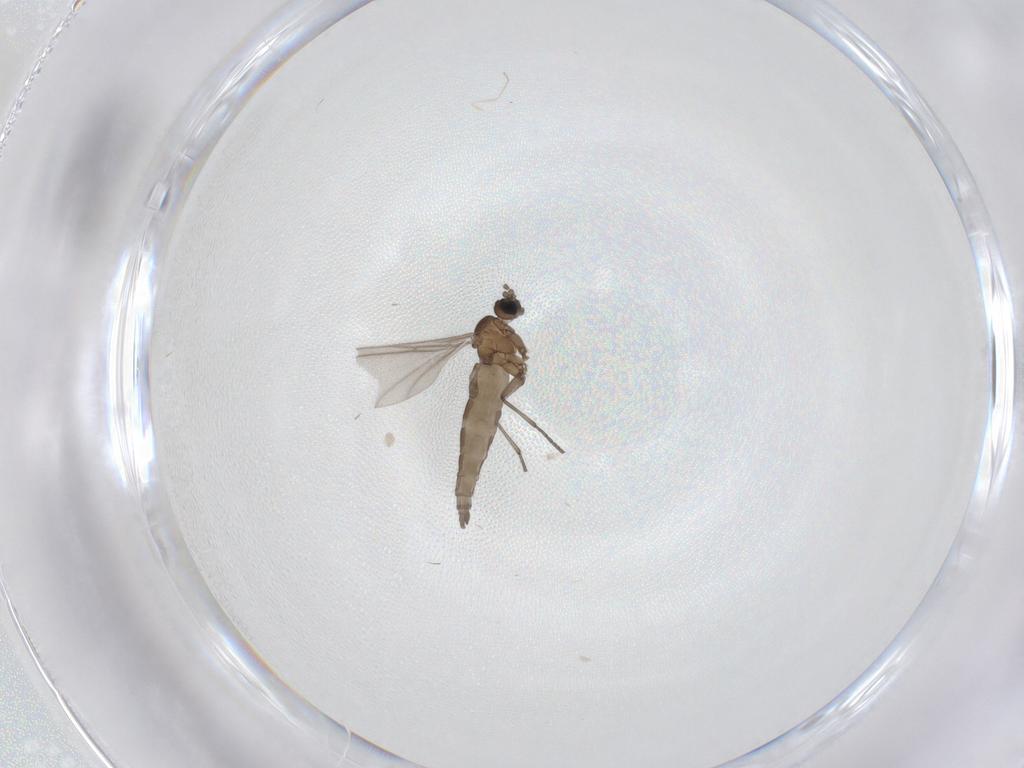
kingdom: Animalia
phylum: Arthropoda
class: Insecta
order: Diptera
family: Sciaridae
